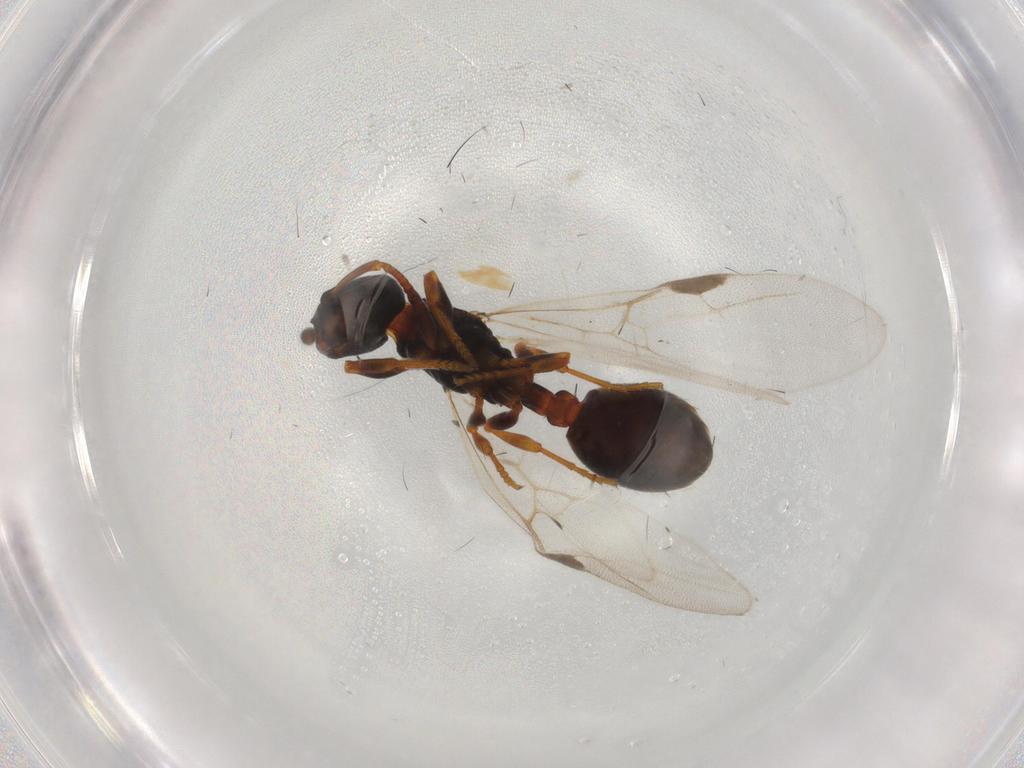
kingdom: Animalia
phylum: Arthropoda
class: Insecta
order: Hymenoptera
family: Formicidae
